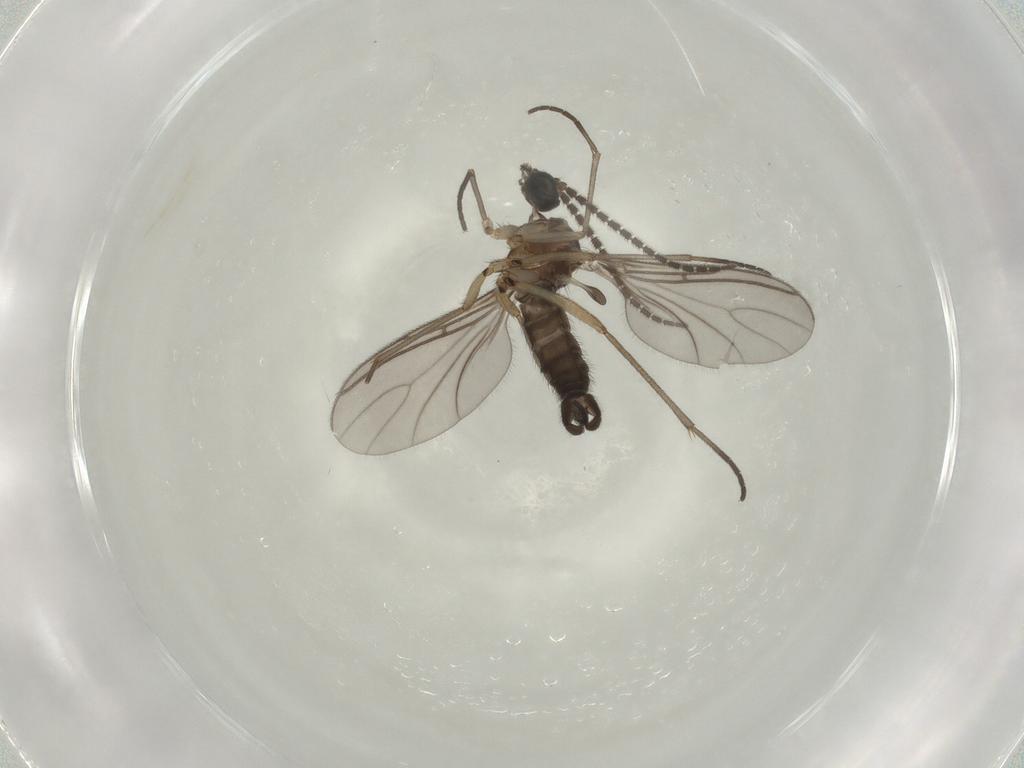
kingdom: Animalia
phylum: Arthropoda
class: Insecta
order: Diptera
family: Sciaridae
